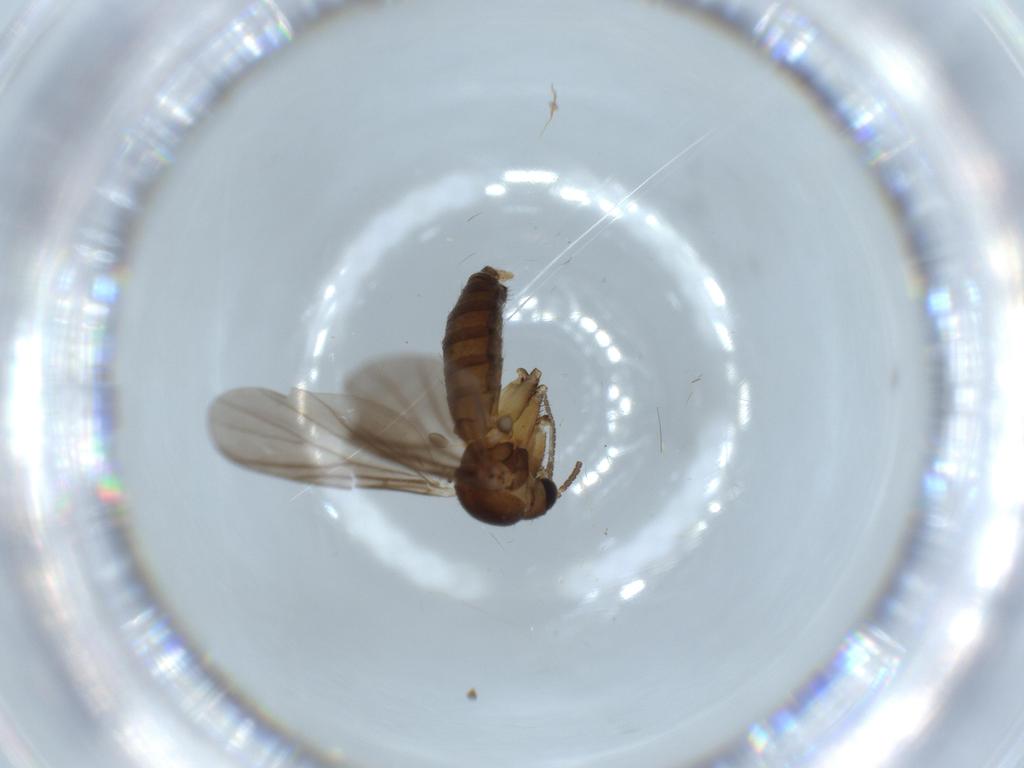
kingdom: Animalia
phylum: Arthropoda
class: Insecta
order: Diptera
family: Mycetophilidae
